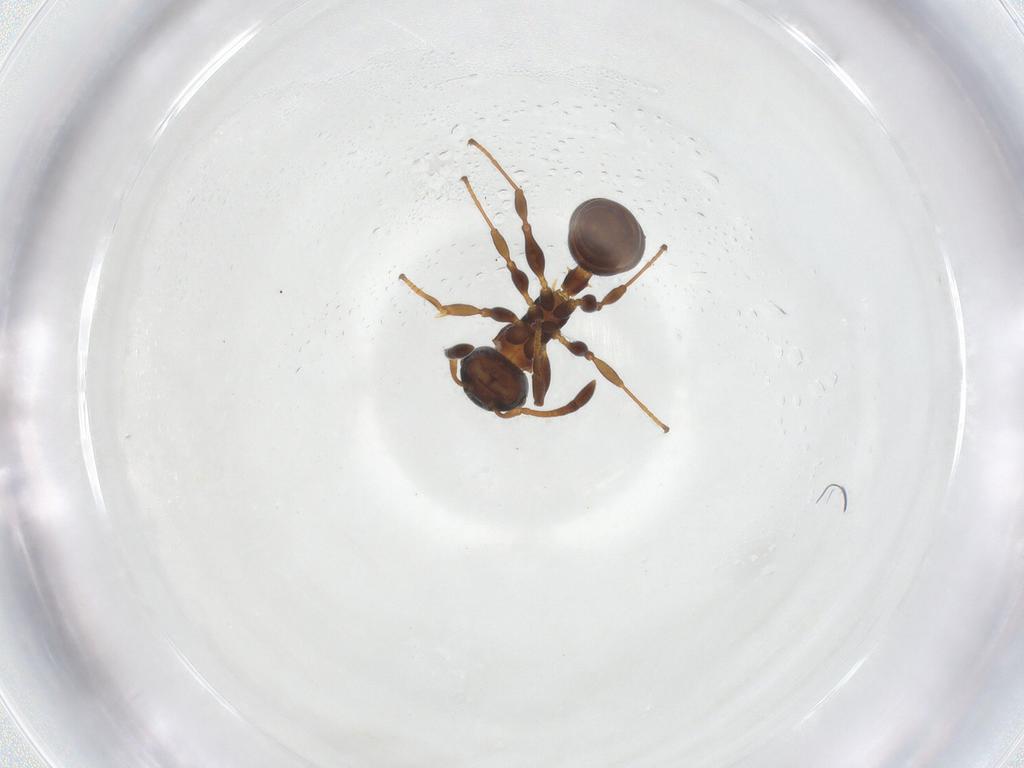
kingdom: Animalia
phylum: Arthropoda
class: Insecta
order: Hymenoptera
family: Formicidae
